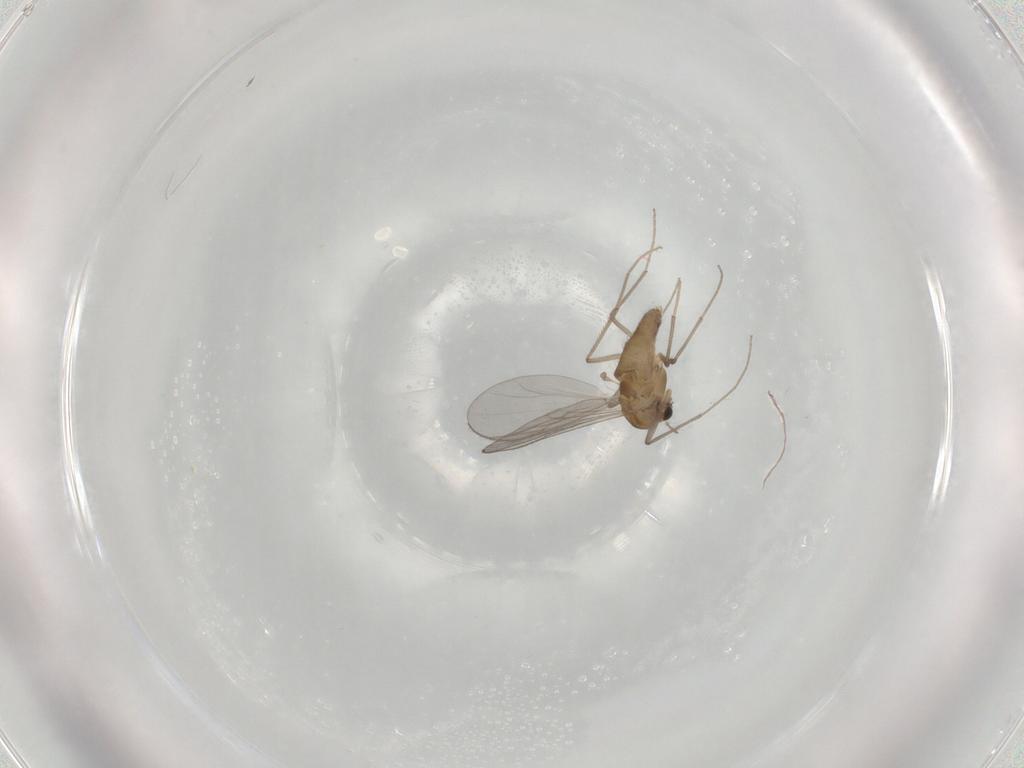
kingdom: Animalia
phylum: Arthropoda
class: Insecta
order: Diptera
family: Chironomidae
